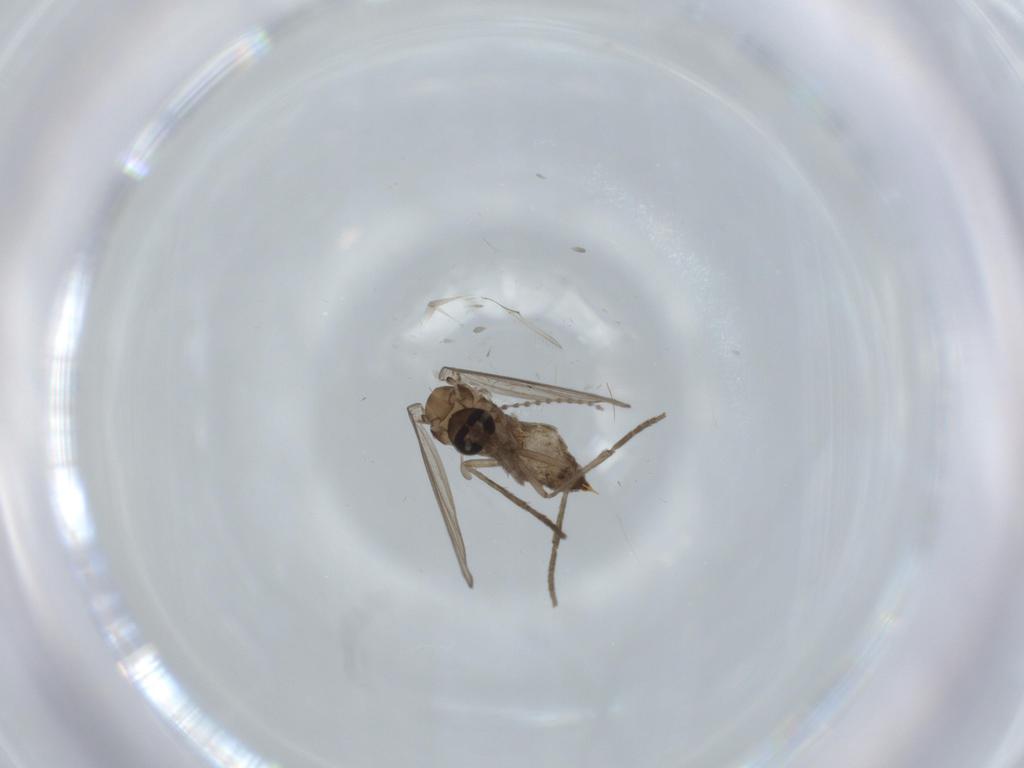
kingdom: Animalia
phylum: Arthropoda
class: Insecta
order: Diptera
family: Psychodidae
